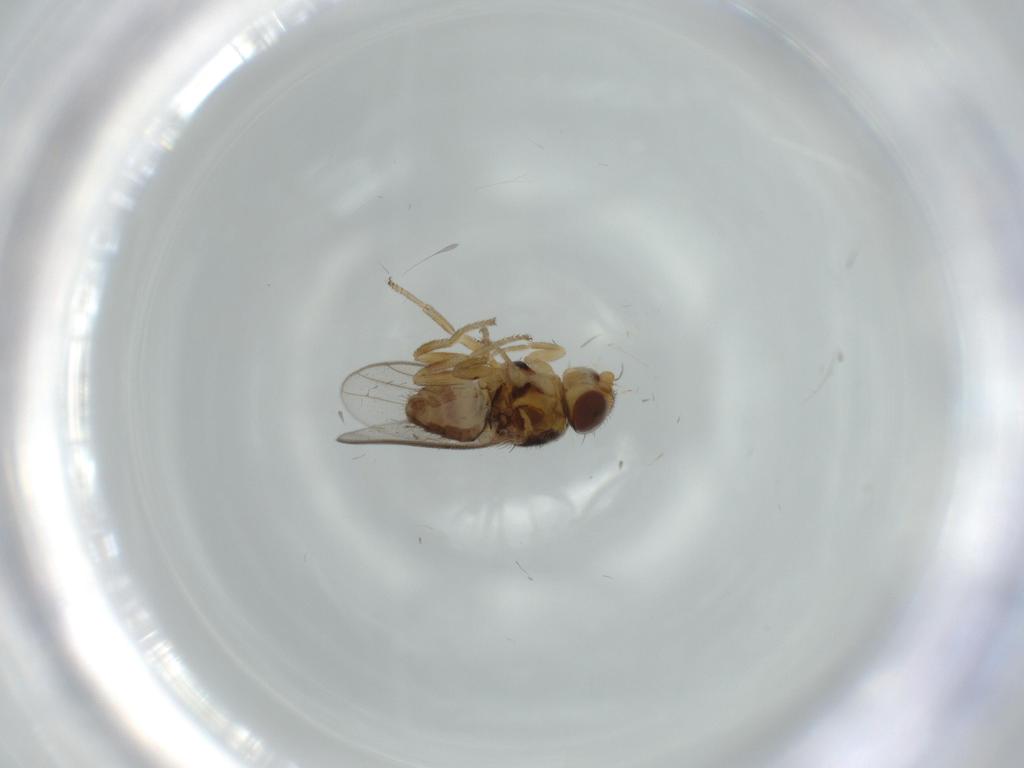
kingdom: Animalia
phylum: Arthropoda
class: Insecta
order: Diptera
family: Chloropidae
